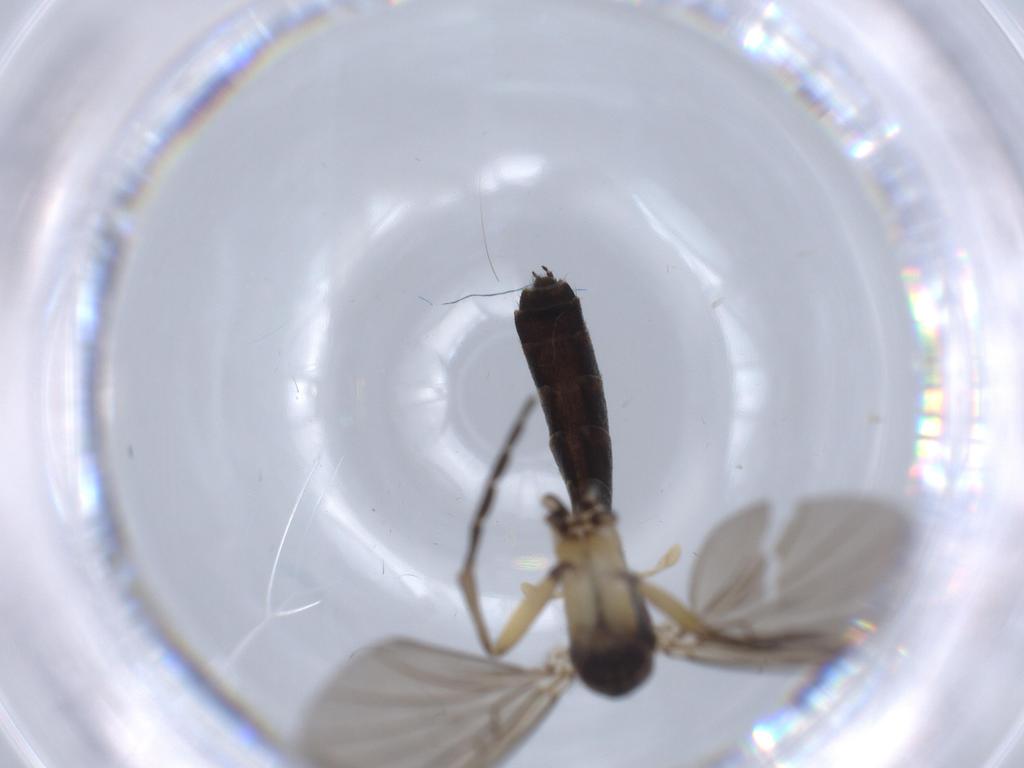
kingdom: Animalia
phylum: Arthropoda
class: Insecta
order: Diptera
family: Mycetophilidae
